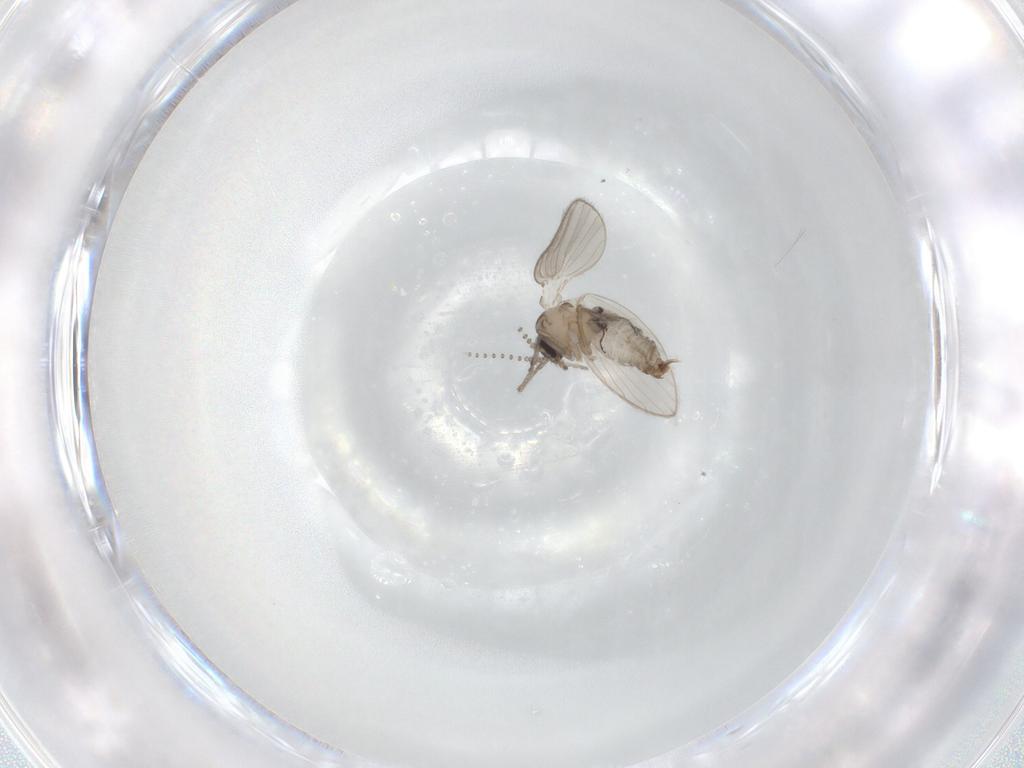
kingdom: Animalia
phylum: Arthropoda
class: Insecta
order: Diptera
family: Psychodidae
